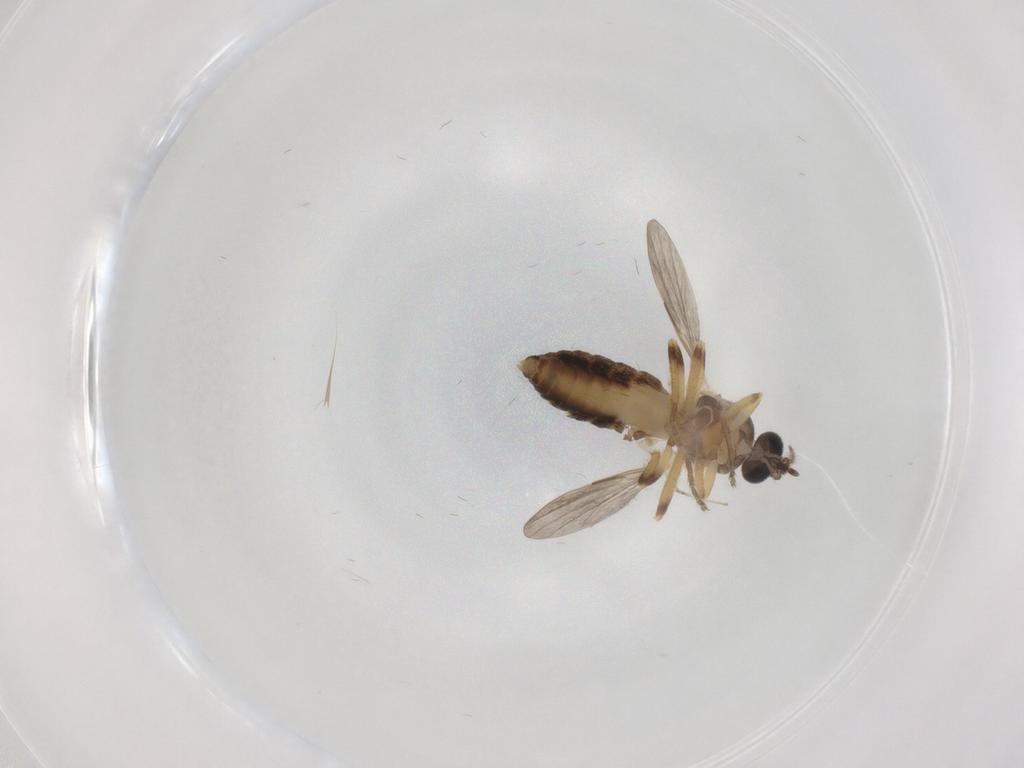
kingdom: Animalia
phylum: Arthropoda
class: Insecta
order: Diptera
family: Ceratopogonidae
